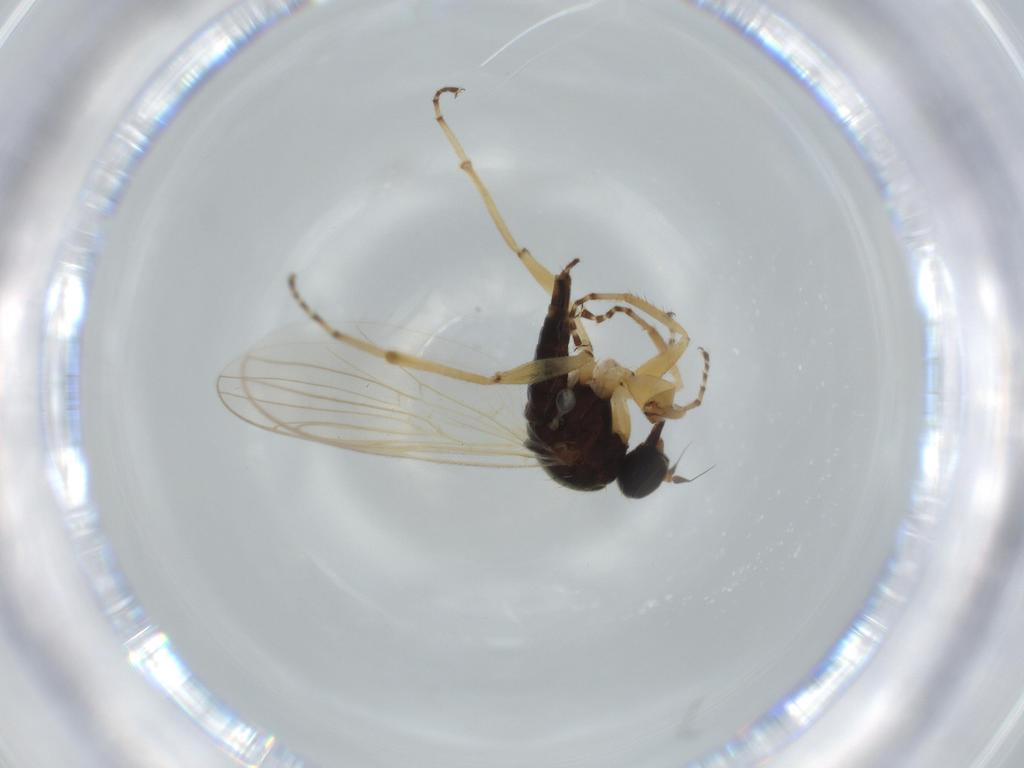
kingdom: Animalia
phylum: Arthropoda
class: Insecta
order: Diptera
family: Hybotidae
